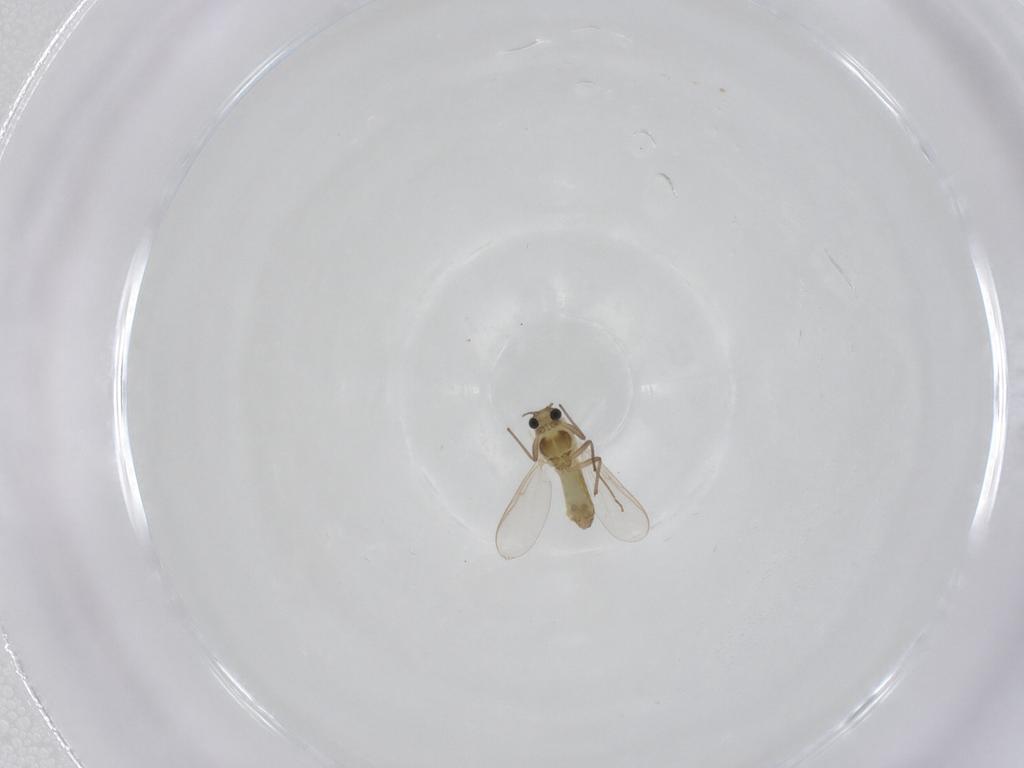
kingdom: Animalia
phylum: Arthropoda
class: Insecta
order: Diptera
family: Chironomidae
